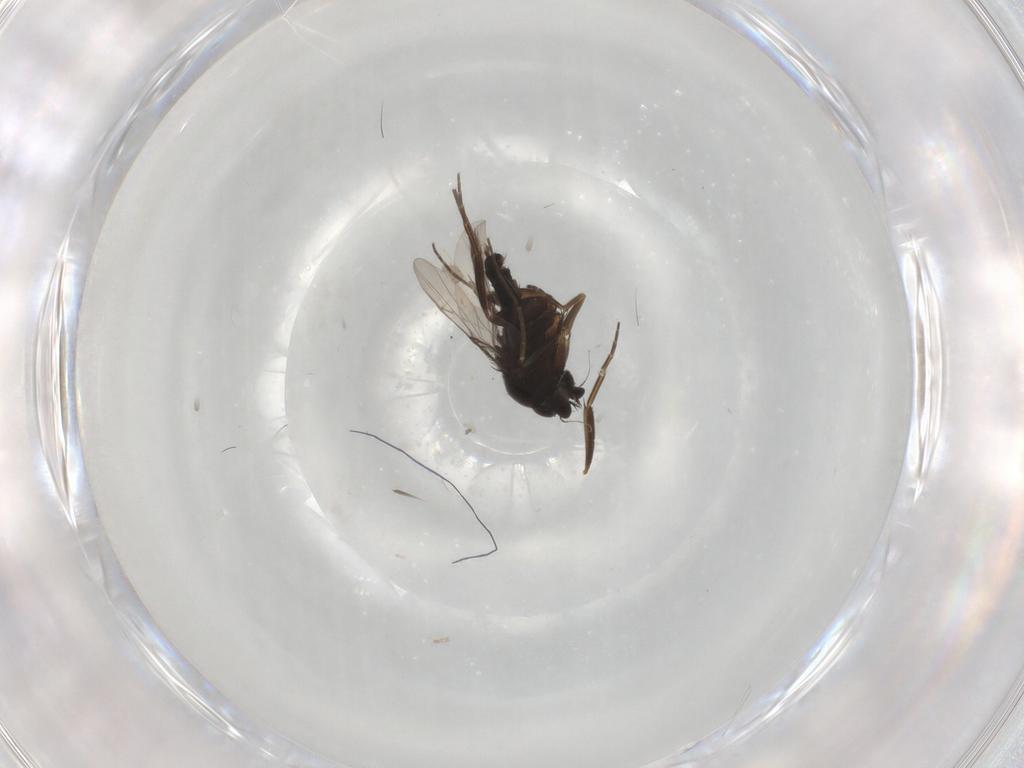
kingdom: Animalia
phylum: Arthropoda
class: Insecta
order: Diptera
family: Phoridae
